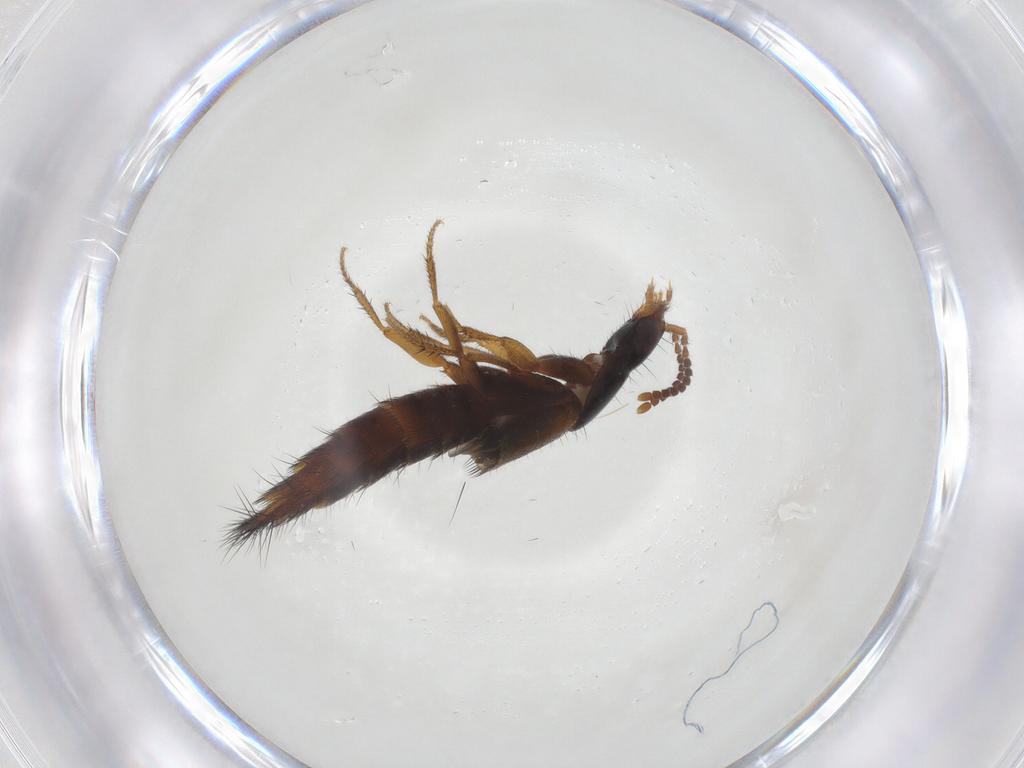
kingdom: Animalia
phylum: Arthropoda
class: Insecta
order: Coleoptera
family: Staphylinidae
